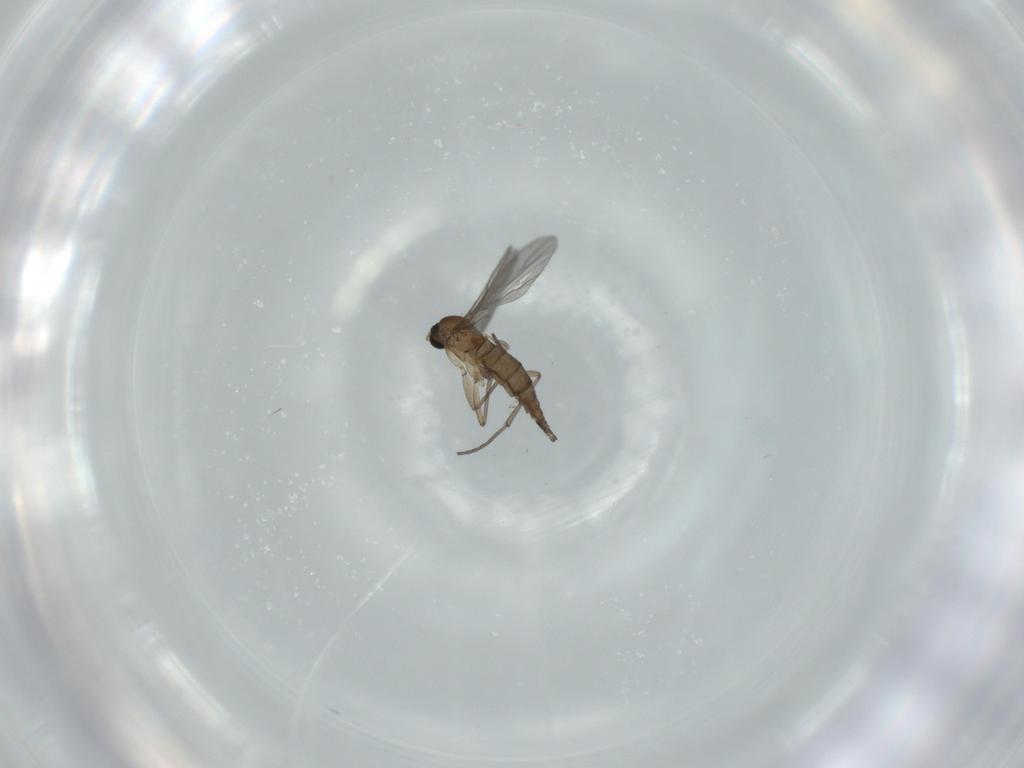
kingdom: Animalia
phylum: Arthropoda
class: Insecta
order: Diptera
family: Sciaridae
